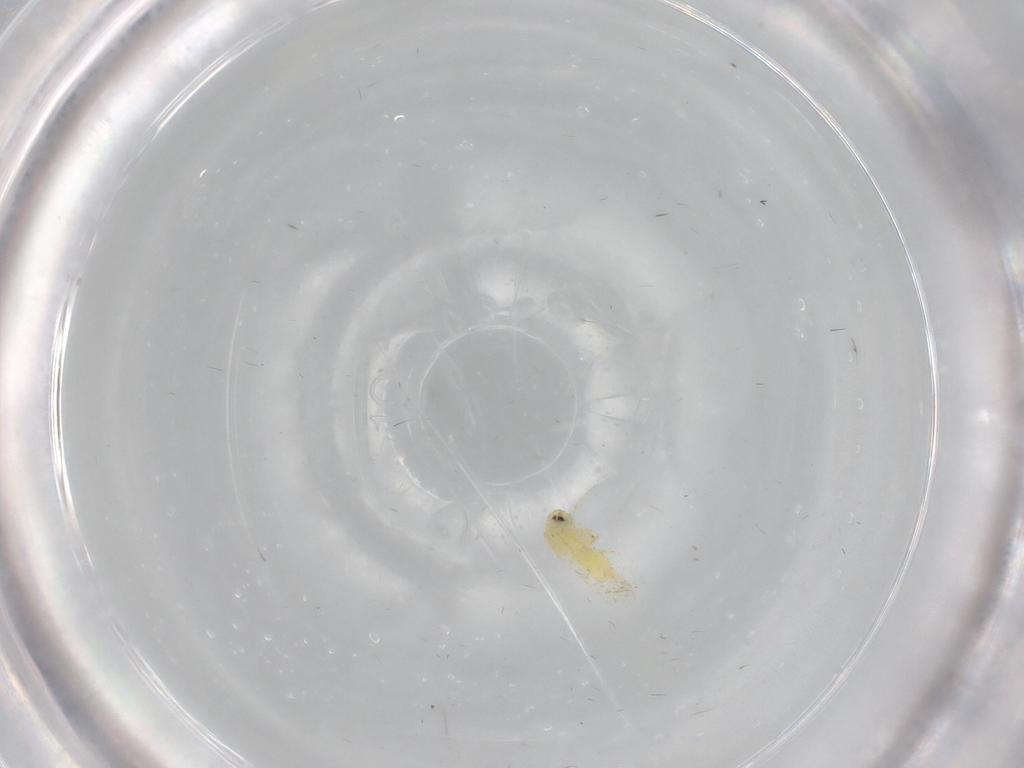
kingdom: Animalia
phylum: Arthropoda
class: Insecta
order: Hemiptera
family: Aleyrodidae
